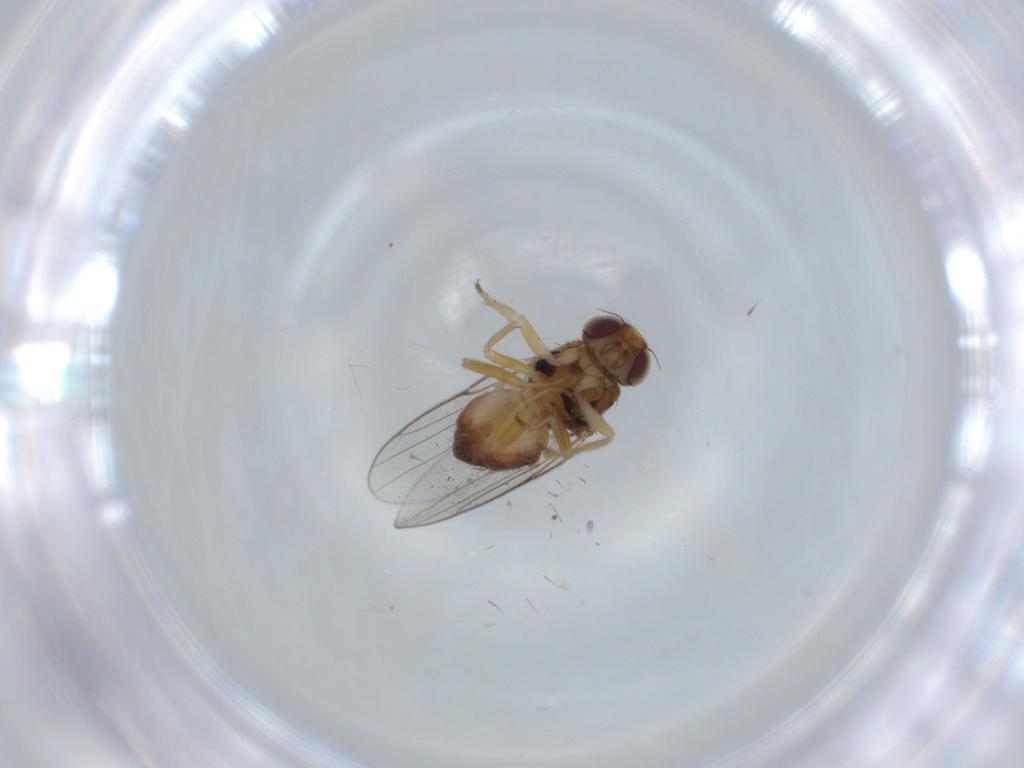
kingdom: Animalia
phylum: Arthropoda
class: Insecta
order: Diptera
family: Chloropidae
